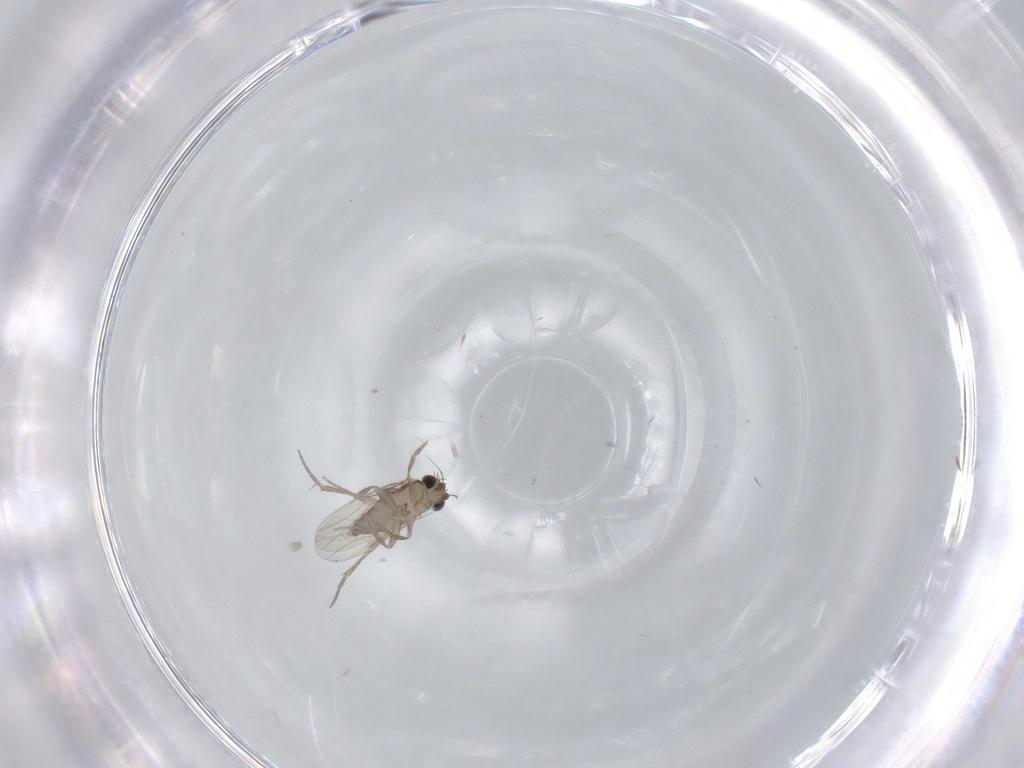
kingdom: Animalia
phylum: Arthropoda
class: Insecta
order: Diptera
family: Phoridae
